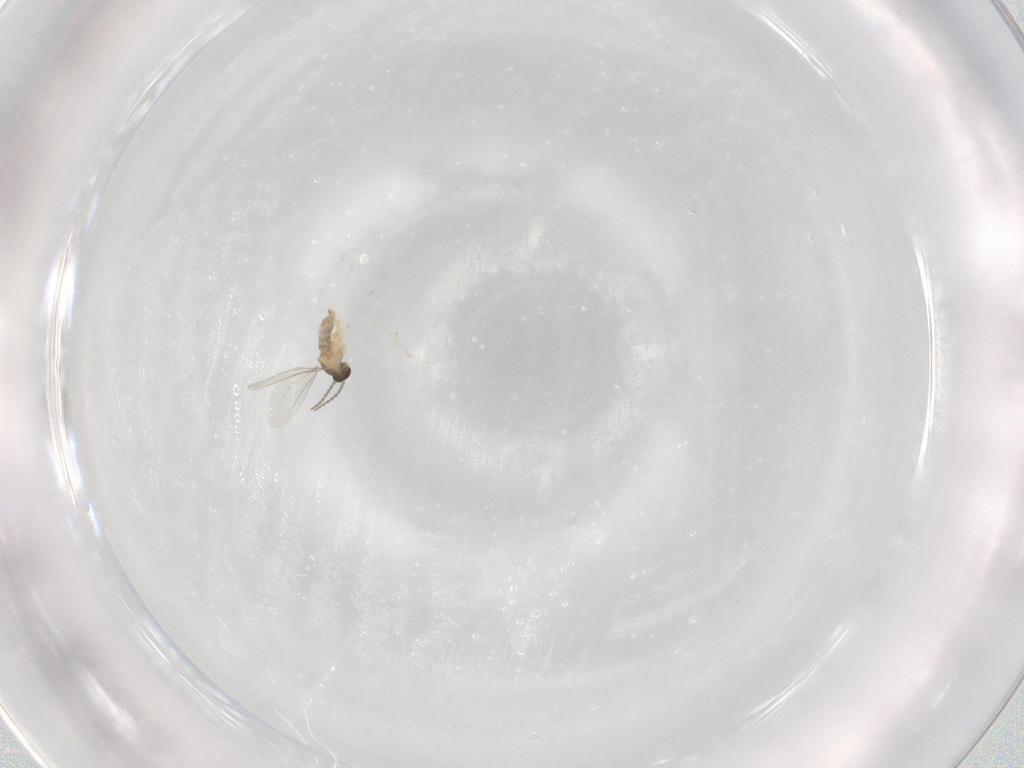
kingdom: Animalia
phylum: Arthropoda
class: Insecta
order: Diptera
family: Cecidomyiidae
